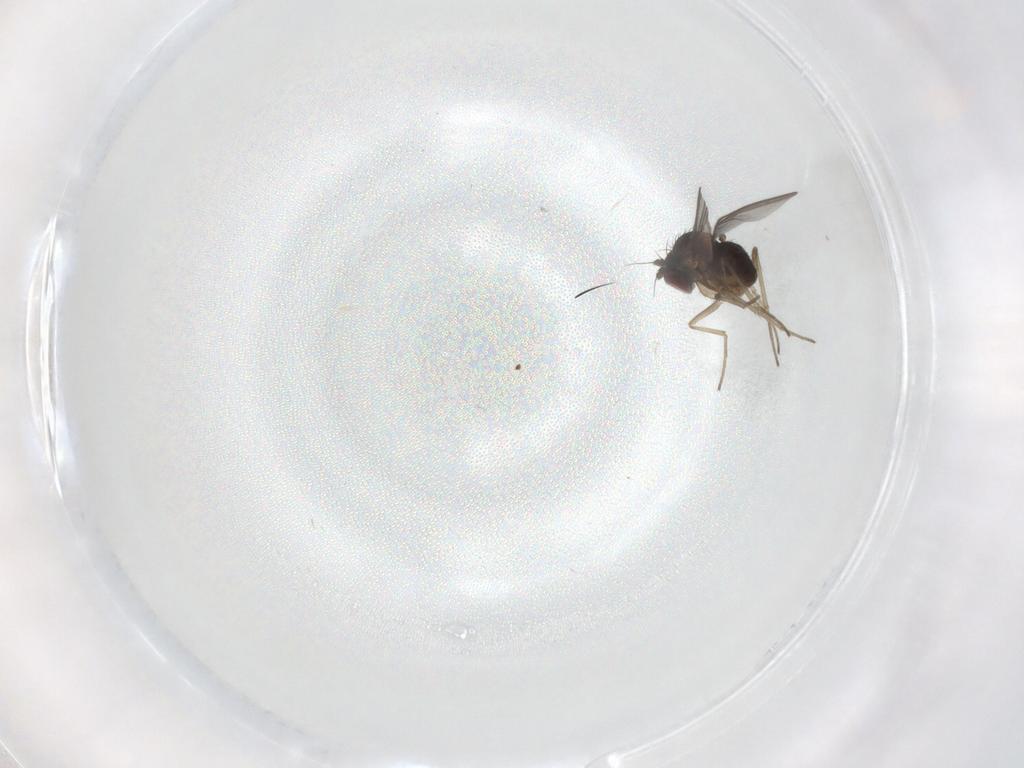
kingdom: Animalia
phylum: Arthropoda
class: Insecta
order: Diptera
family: Dolichopodidae
